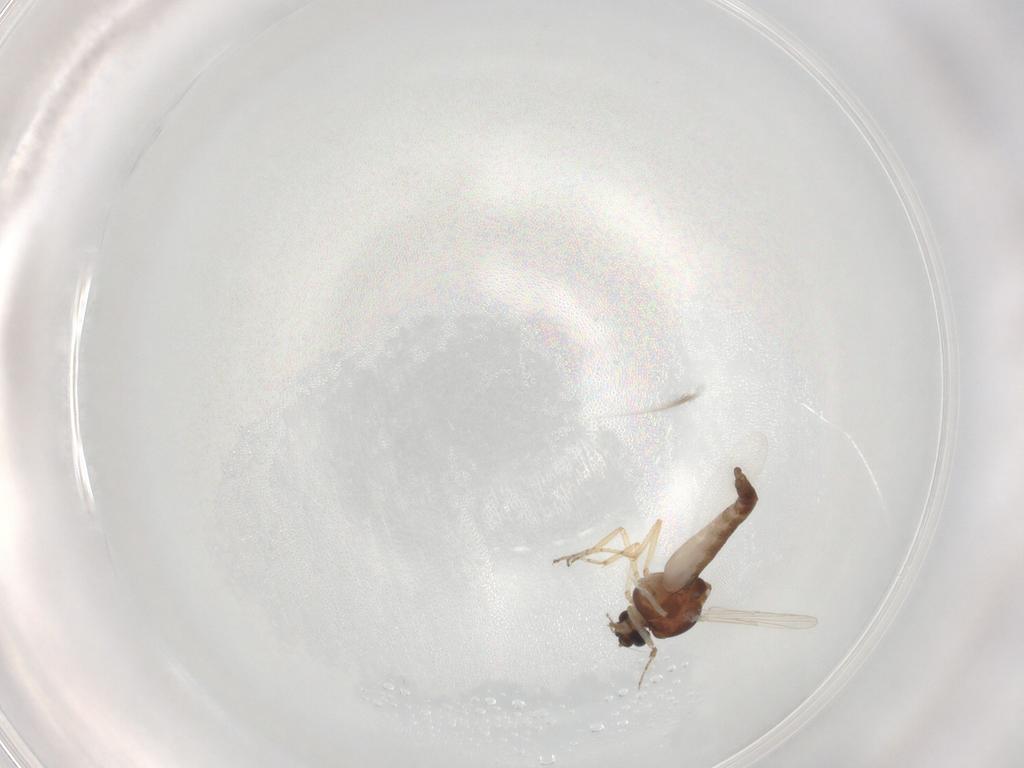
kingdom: Animalia
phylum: Arthropoda
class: Insecta
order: Diptera
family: Ceratopogonidae
